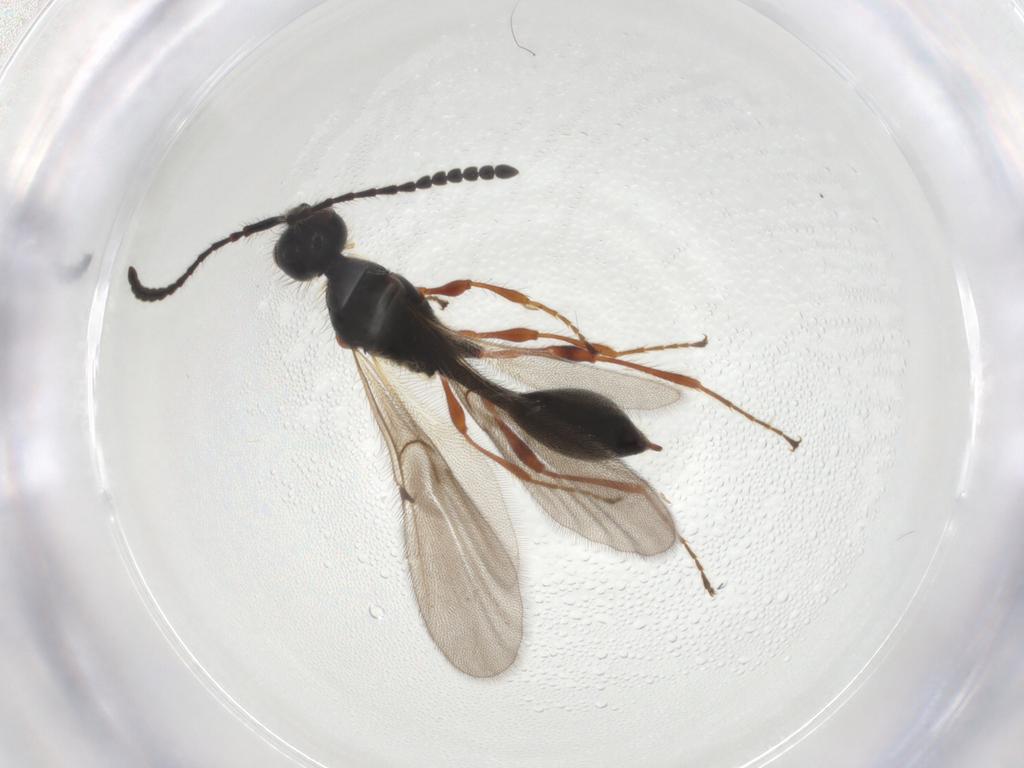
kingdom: Animalia
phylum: Arthropoda
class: Insecta
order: Hymenoptera
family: Diapriidae
